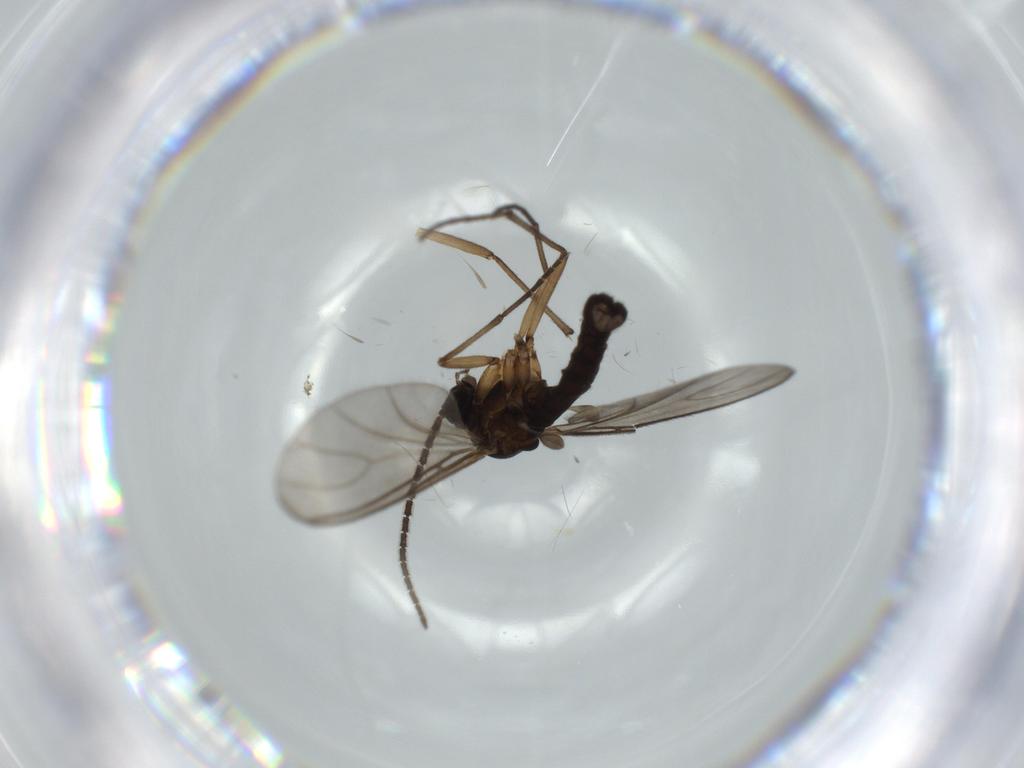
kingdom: Animalia
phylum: Arthropoda
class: Insecta
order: Diptera
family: Sciaridae
